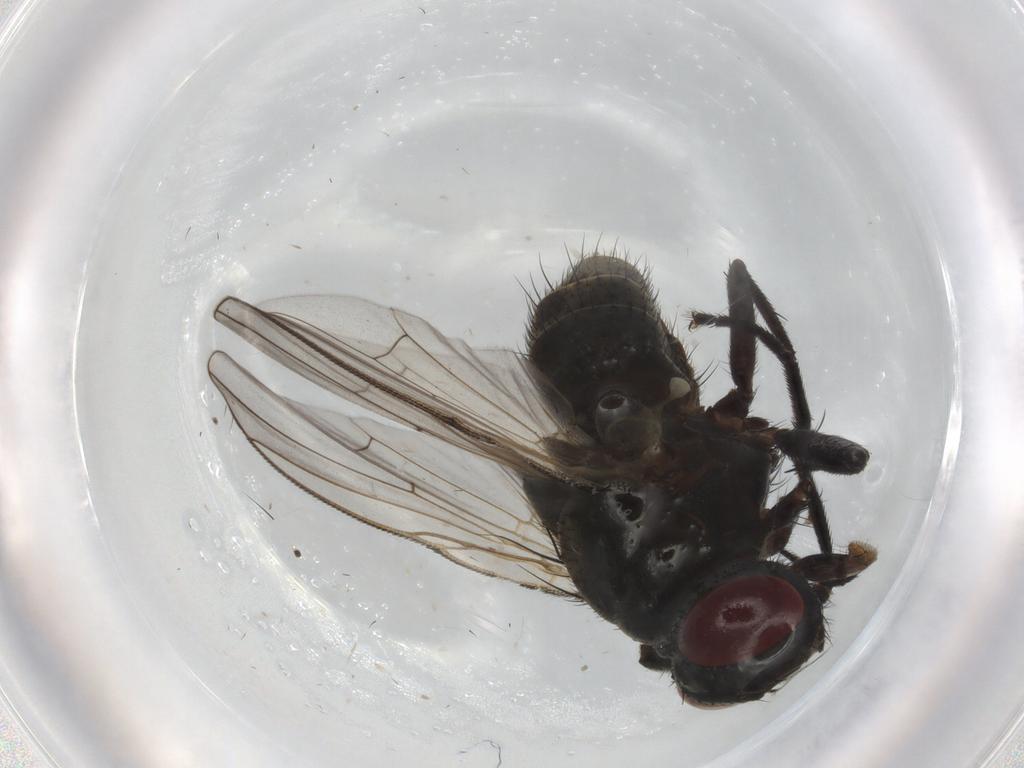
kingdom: Animalia
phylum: Arthropoda
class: Insecta
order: Diptera
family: Muscidae
